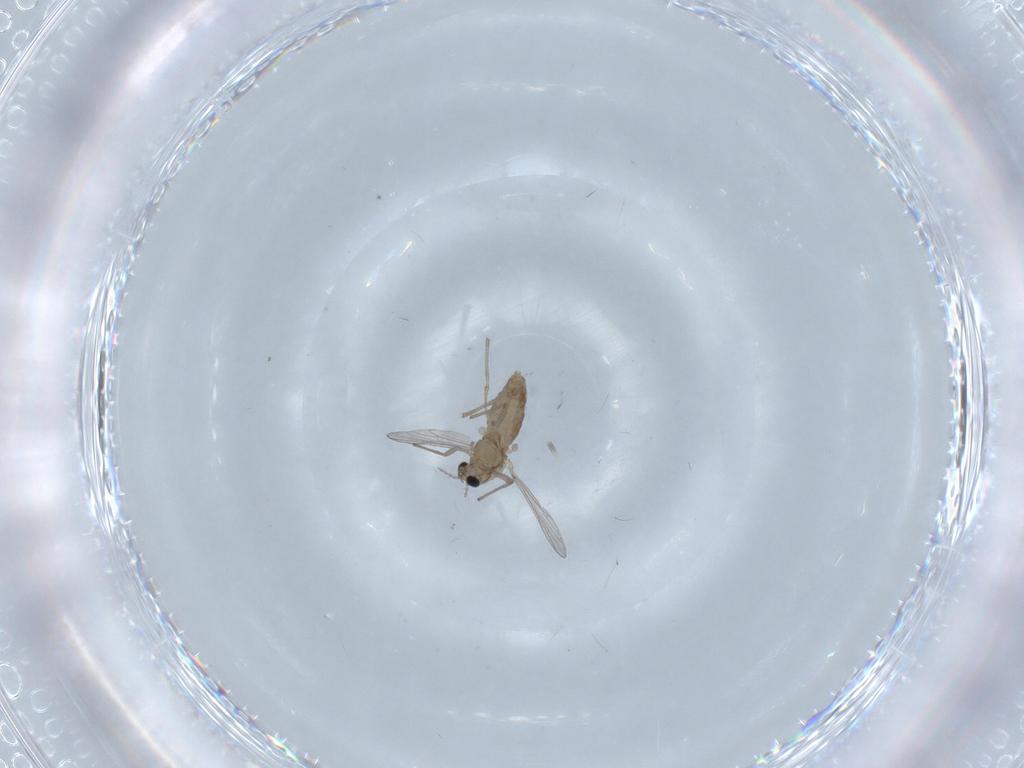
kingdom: Animalia
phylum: Arthropoda
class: Insecta
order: Diptera
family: Chironomidae
